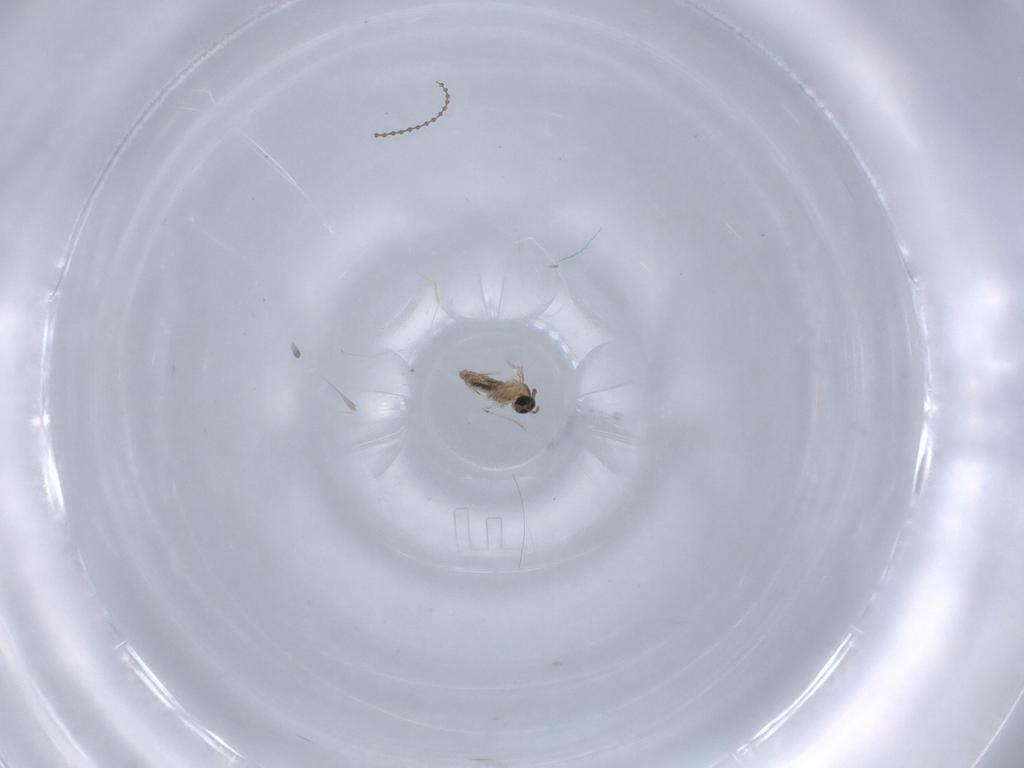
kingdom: Animalia
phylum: Arthropoda
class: Insecta
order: Diptera
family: Cecidomyiidae
